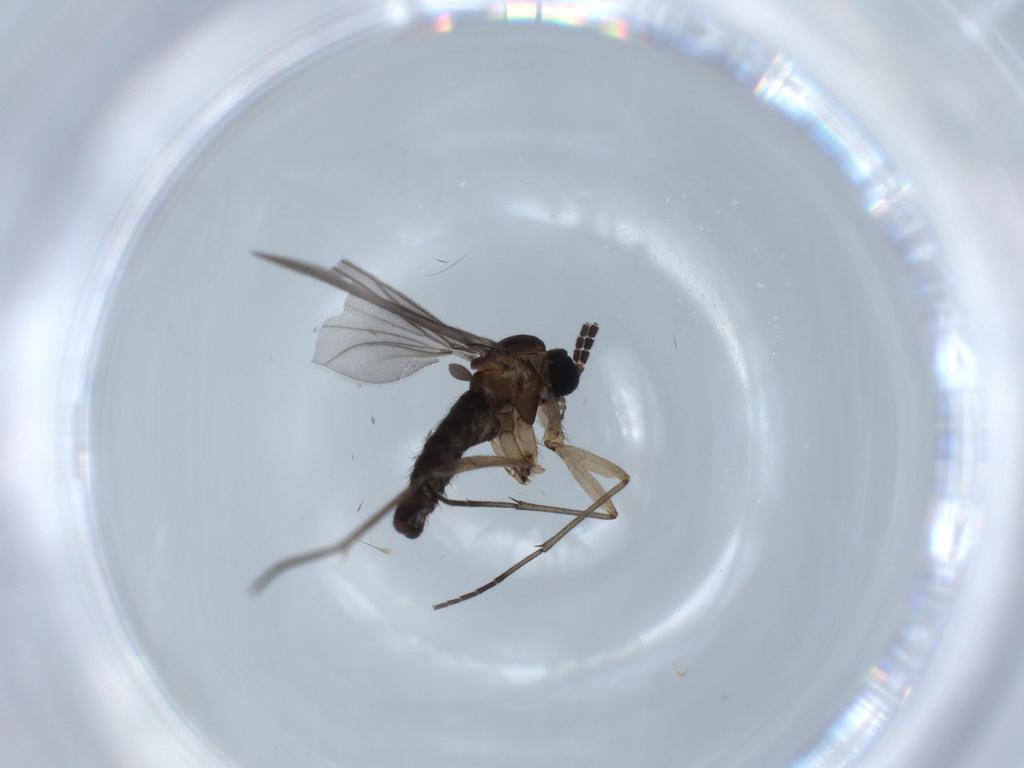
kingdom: Animalia
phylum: Arthropoda
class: Insecta
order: Diptera
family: Sciaridae
